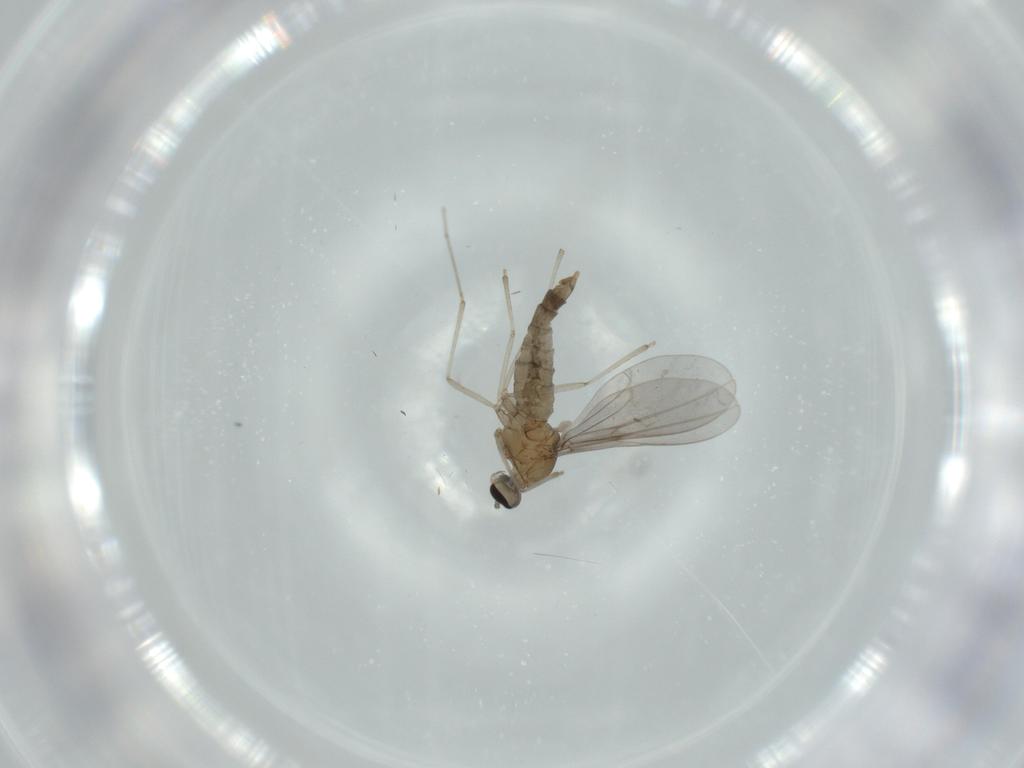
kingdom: Animalia
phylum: Arthropoda
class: Insecta
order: Diptera
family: Cecidomyiidae
